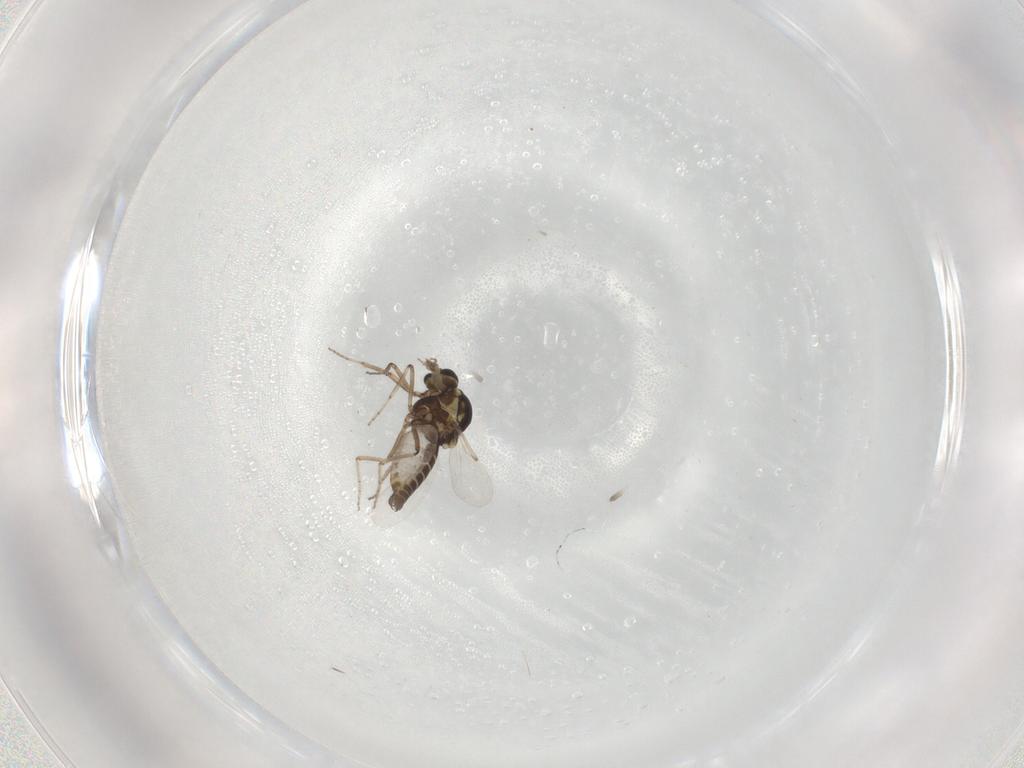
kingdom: Animalia
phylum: Arthropoda
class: Insecta
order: Diptera
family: Ceratopogonidae
